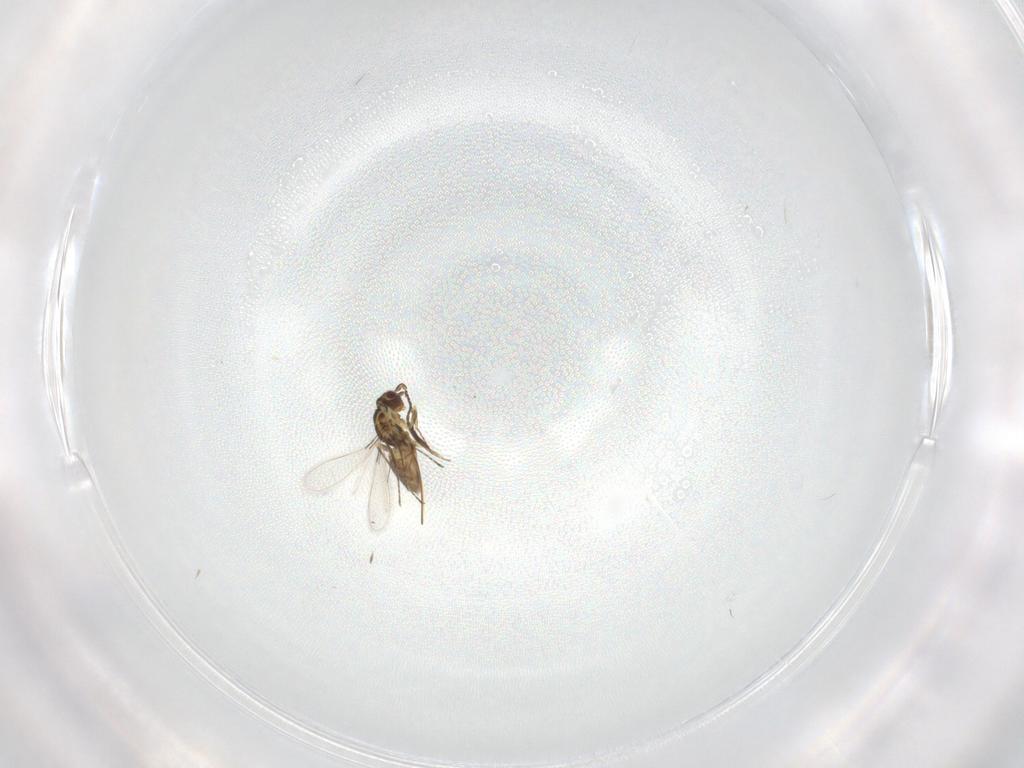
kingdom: Animalia
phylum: Arthropoda
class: Insecta
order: Hymenoptera
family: Mymaridae
